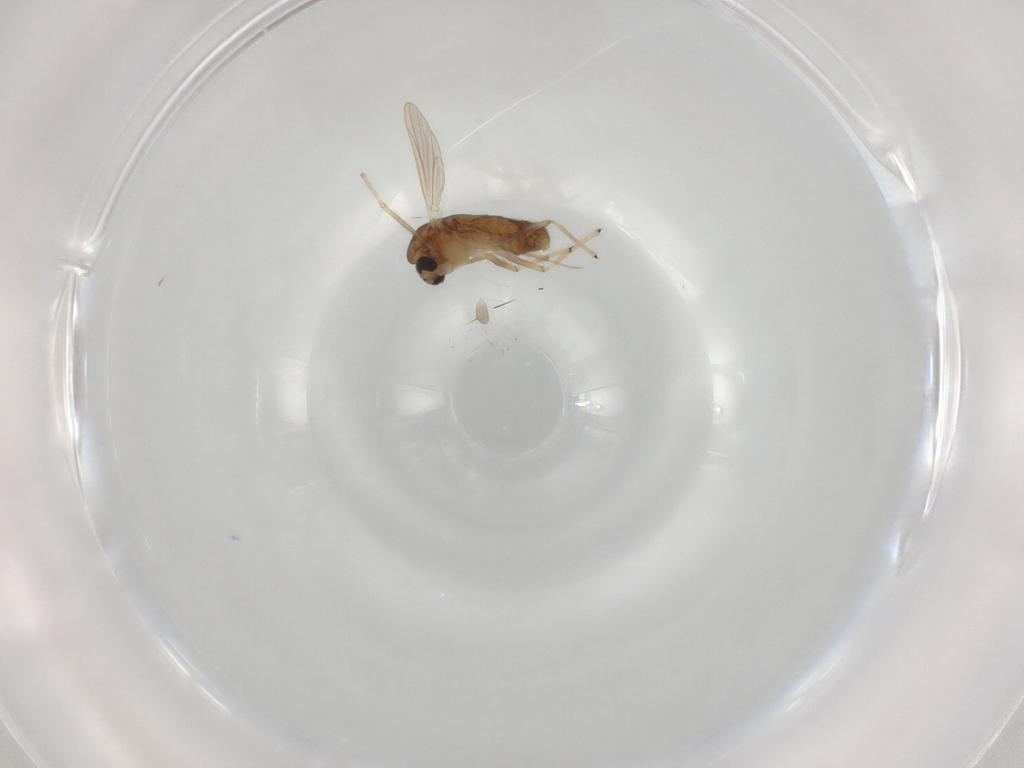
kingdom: Animalia
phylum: Arthropoda
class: Insecta
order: Diptera
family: Chironomidae
